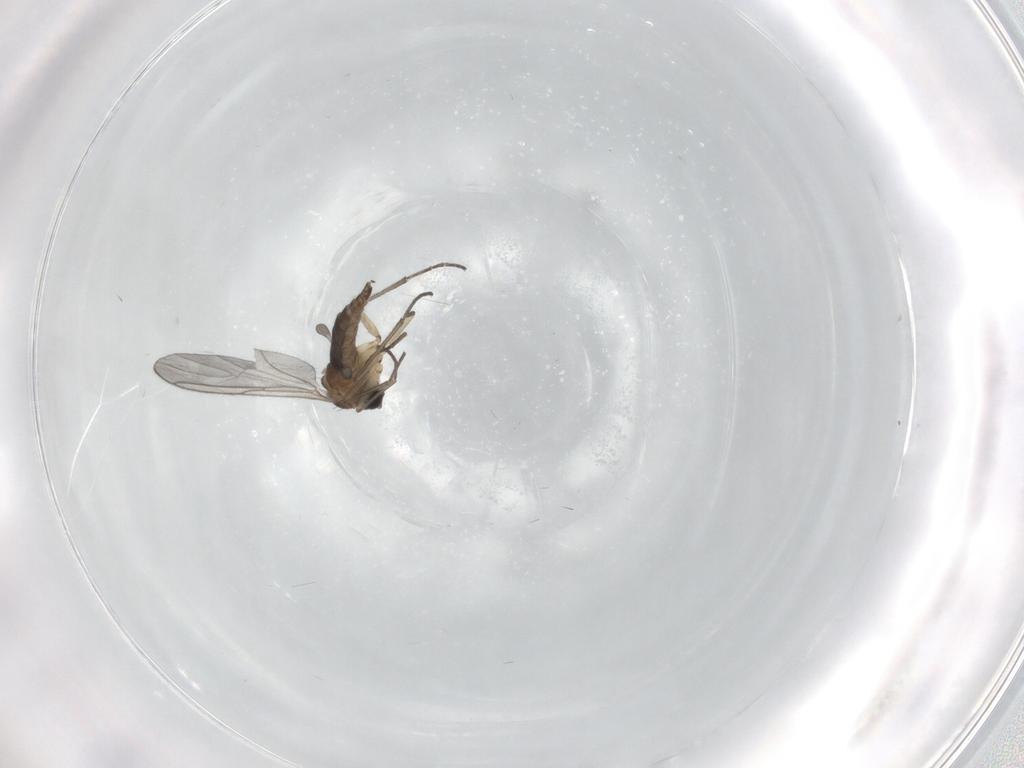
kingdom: Animalia
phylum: Arthropoda
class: Insecta
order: Diptera
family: Sciaridae
